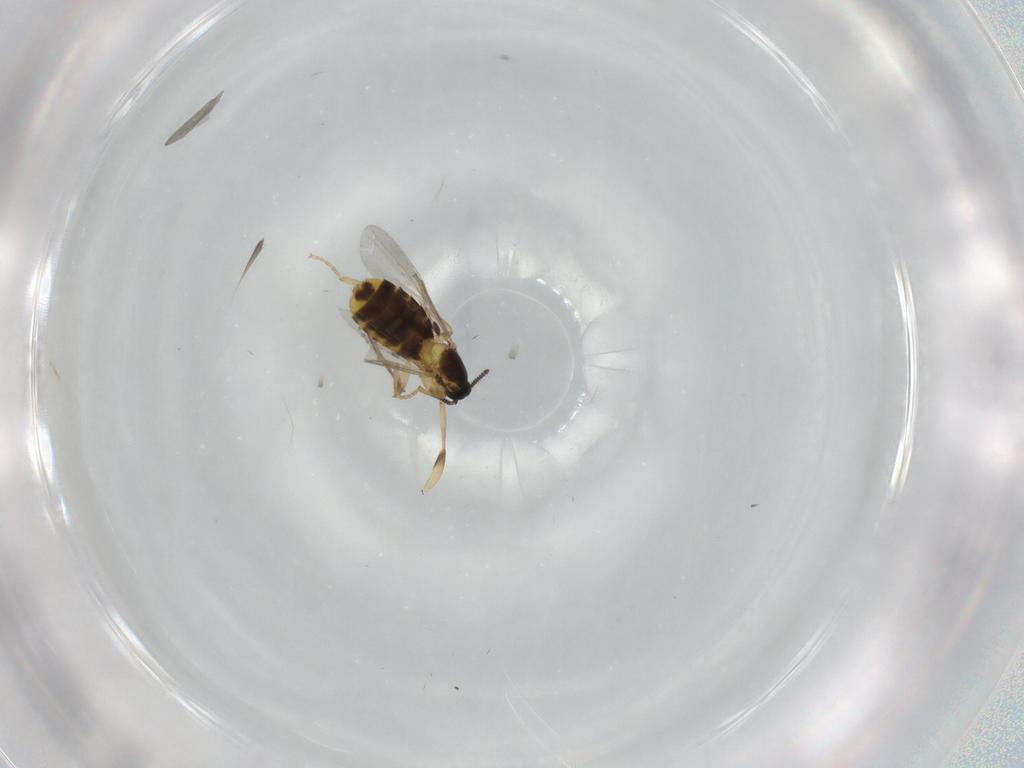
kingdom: Animalia
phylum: Arthropoda
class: Insecta
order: Diptera
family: Scatopsidae
